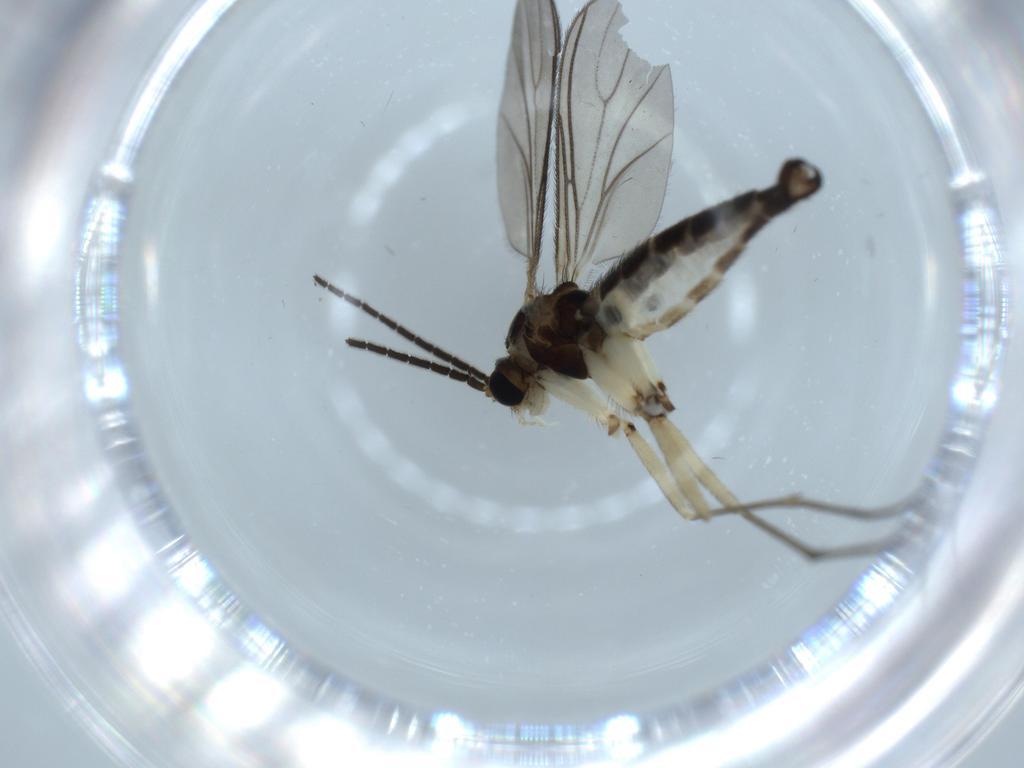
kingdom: Animalia
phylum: Arthropoda
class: Insecta
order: Diptera
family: Sciaridae
